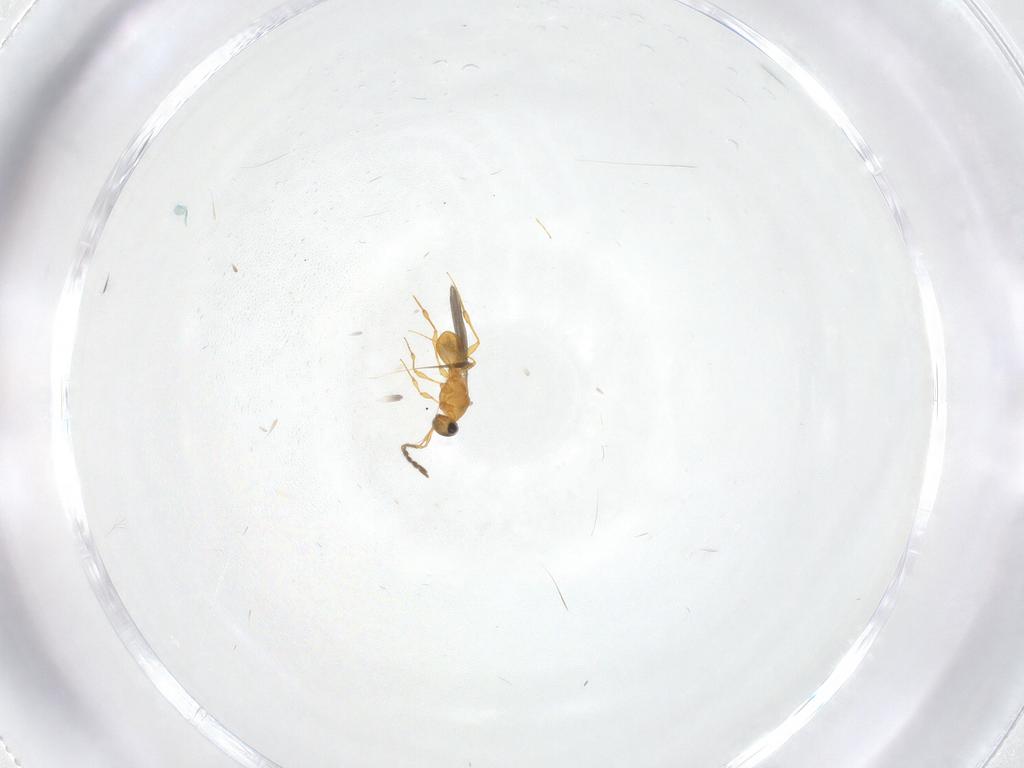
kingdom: Animalia
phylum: Arthropoda
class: Insecta
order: Hymenoptera
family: Platygastridae
